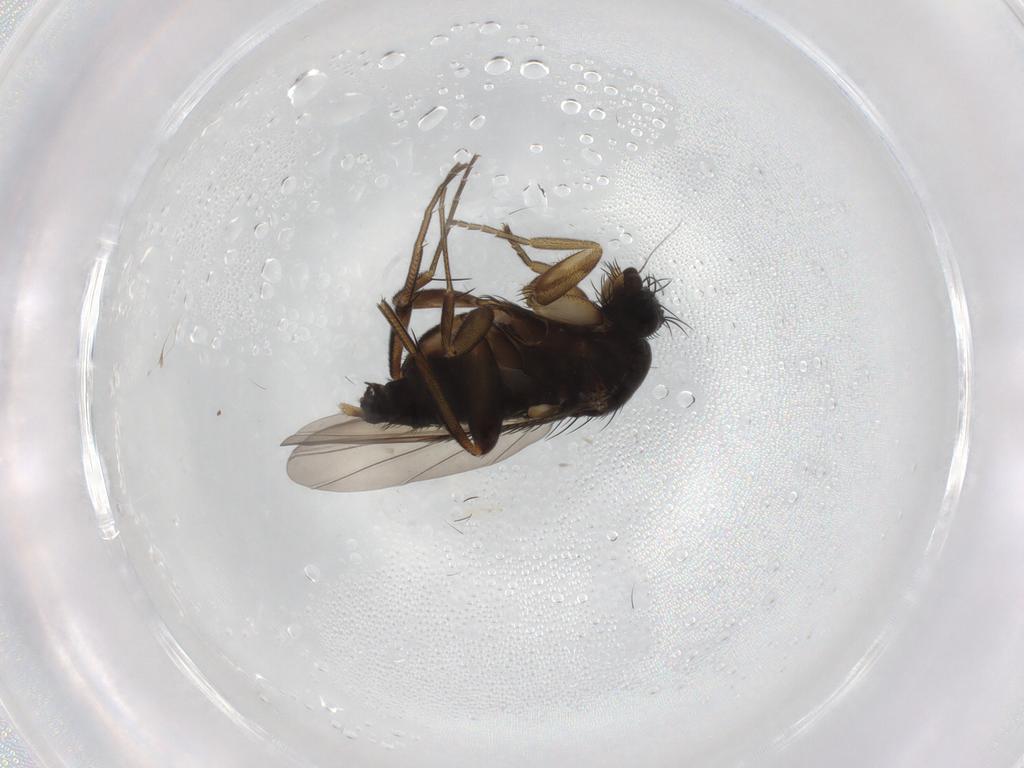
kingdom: Animalia
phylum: Arthropoda
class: Insecta
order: Diptera
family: Phoridae
